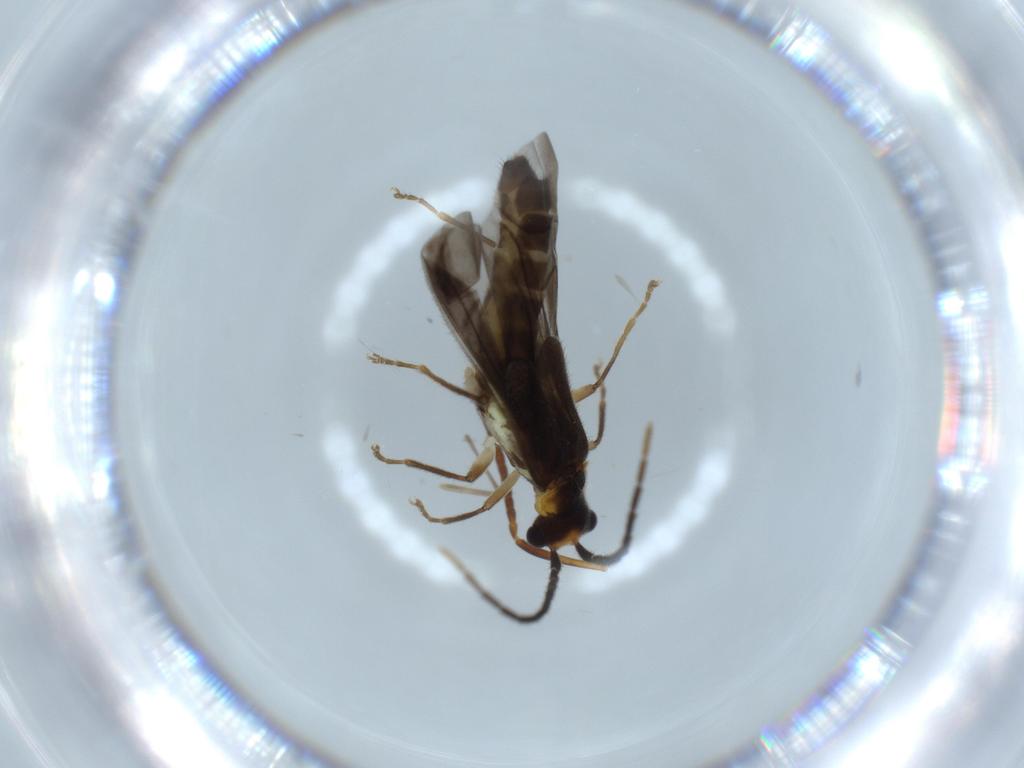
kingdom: Animalia
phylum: Arthropoda
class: Insecta
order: Coleoptera
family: Cantharidae
